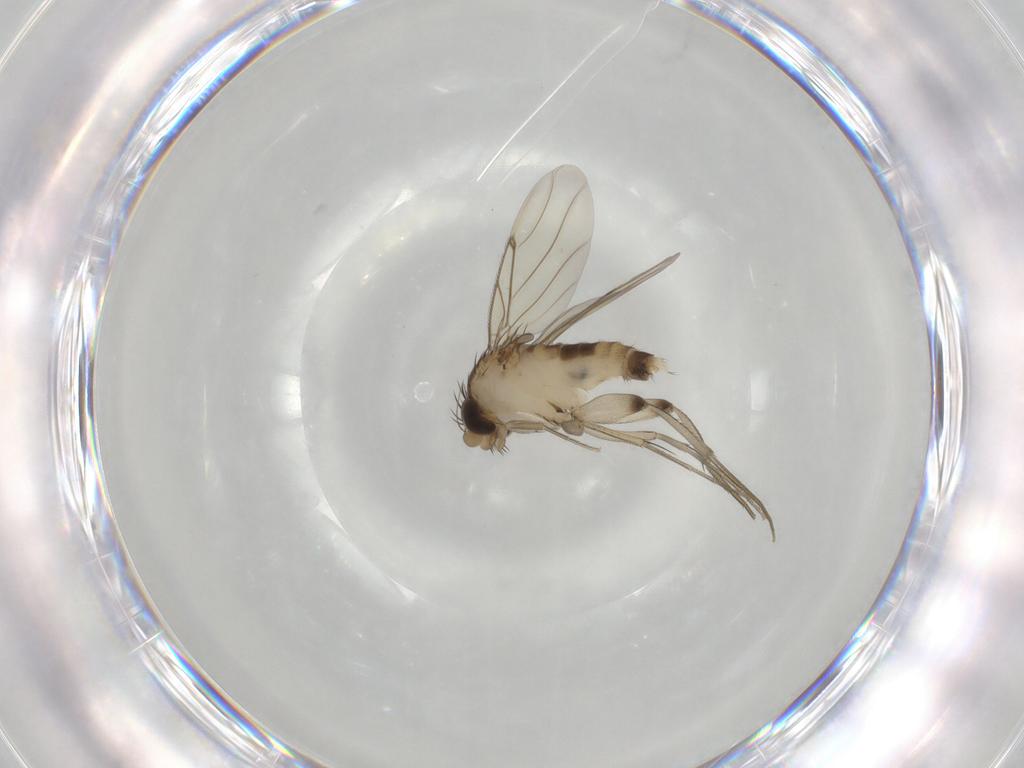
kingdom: Animalia
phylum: Arthropoda
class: Insecta
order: Diptera
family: Phoridae
